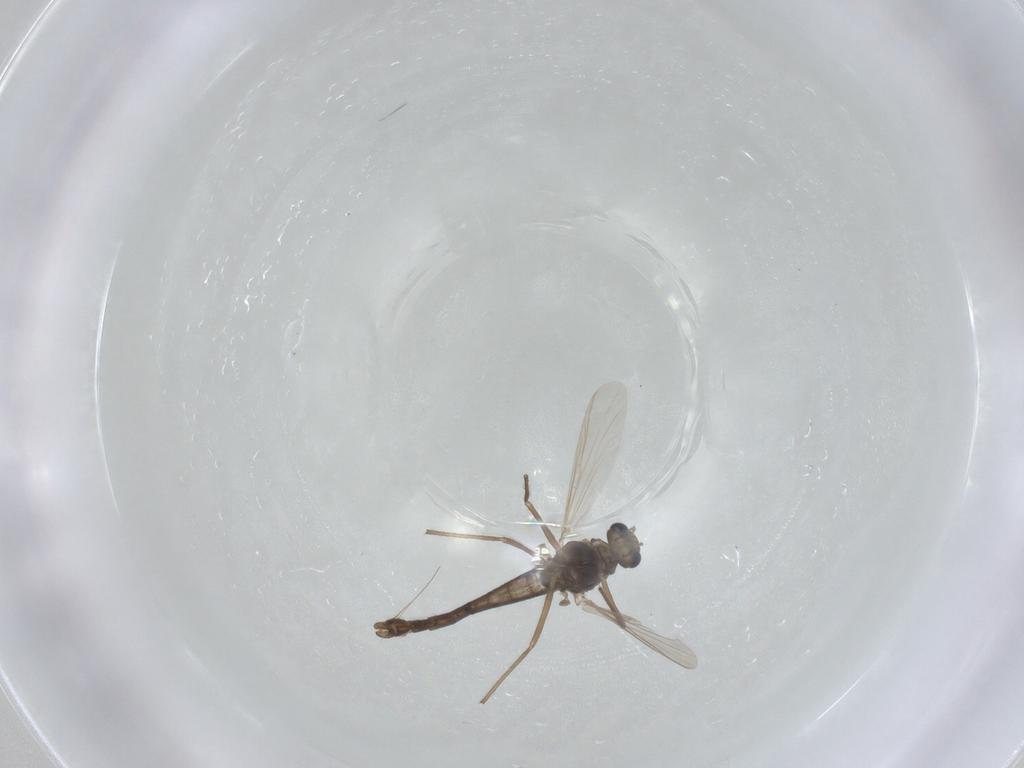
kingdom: Animalia
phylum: Arthropoda
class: Insecta
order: Diptera
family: Chironomidae
